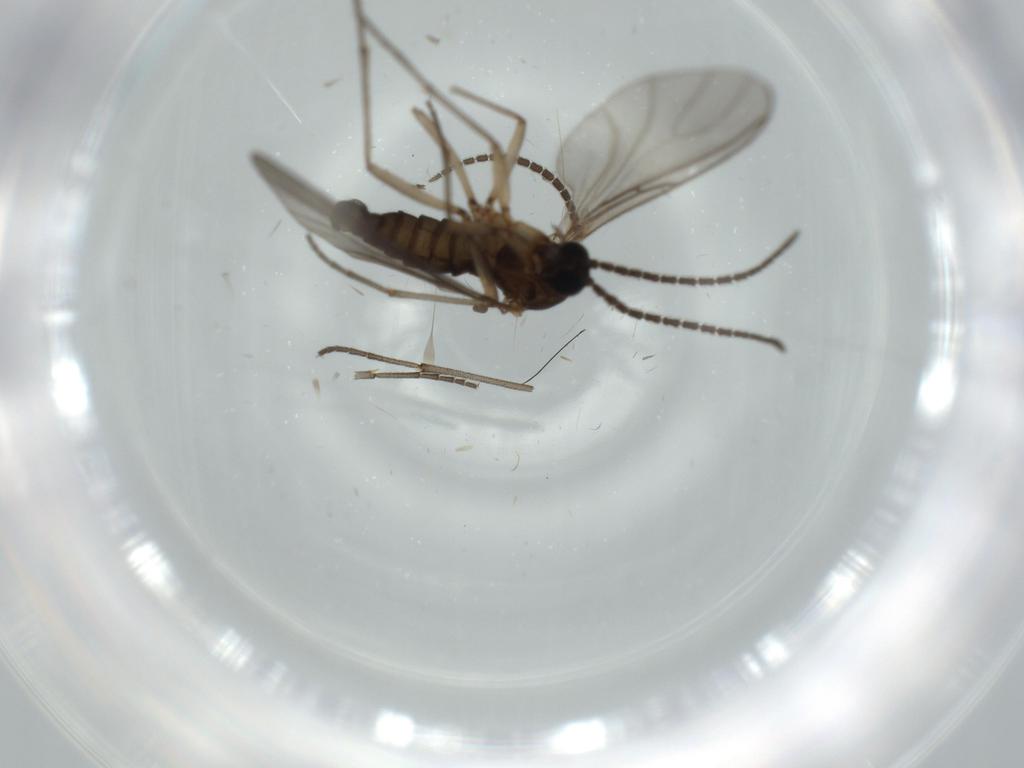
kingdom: Animalia
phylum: Arthropoda
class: Insecta
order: Diptera
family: Sciaridae
